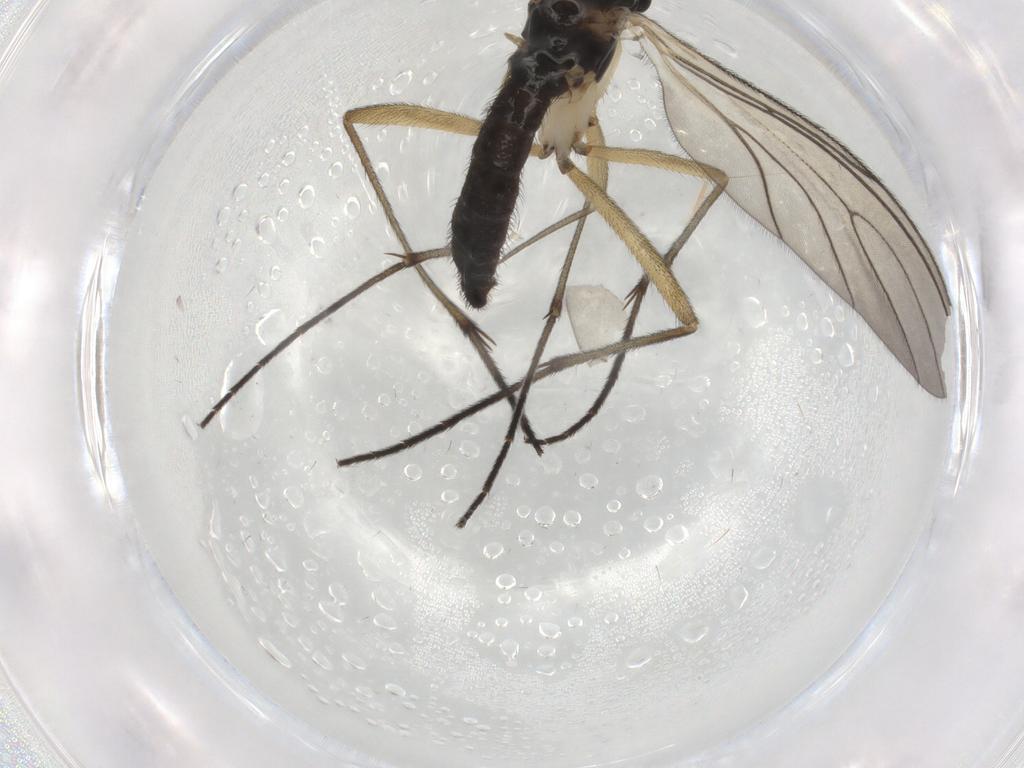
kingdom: Animalia
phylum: Arthropoda
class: Insecta
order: Diptera
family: Sciaridae
